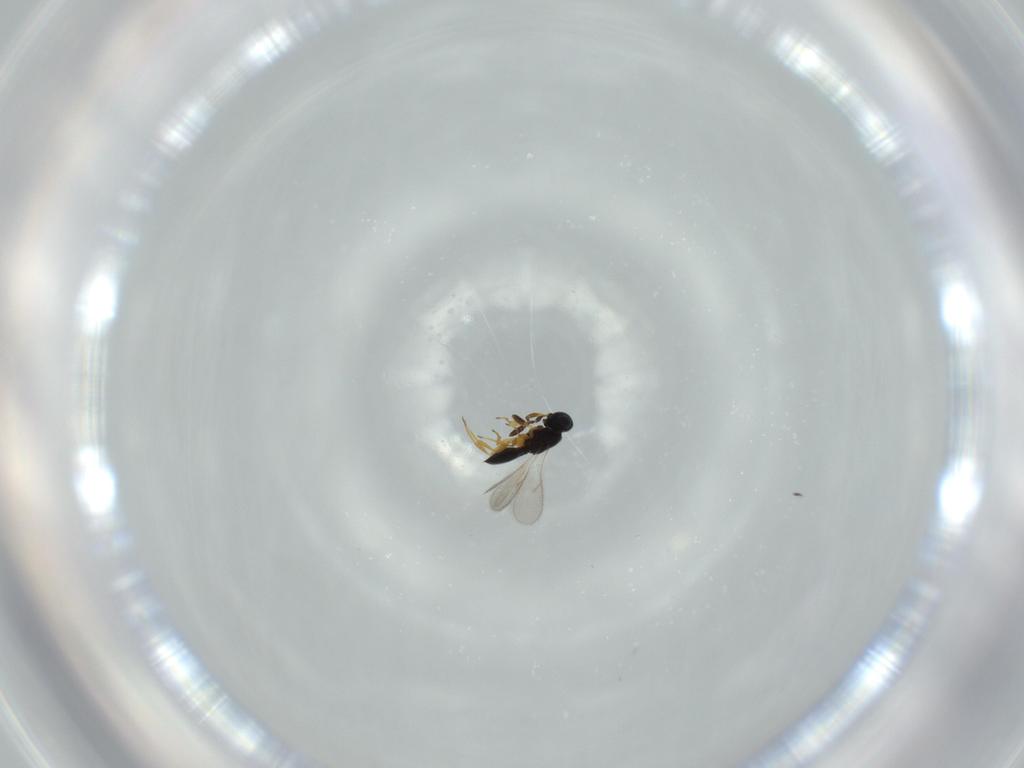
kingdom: Animalia
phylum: Arthropoda
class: Insecta
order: Hymenoptera
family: Scelionidae
